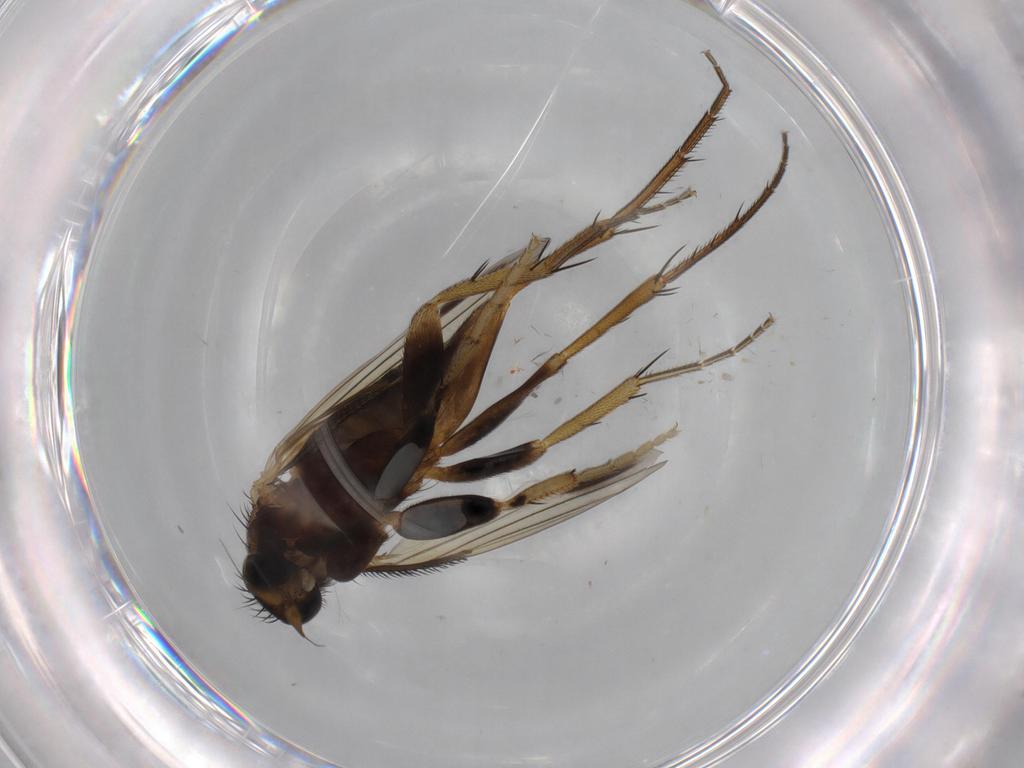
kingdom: Animalia
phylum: Arthropoda
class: Insecta
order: Diptera
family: Phoridae
